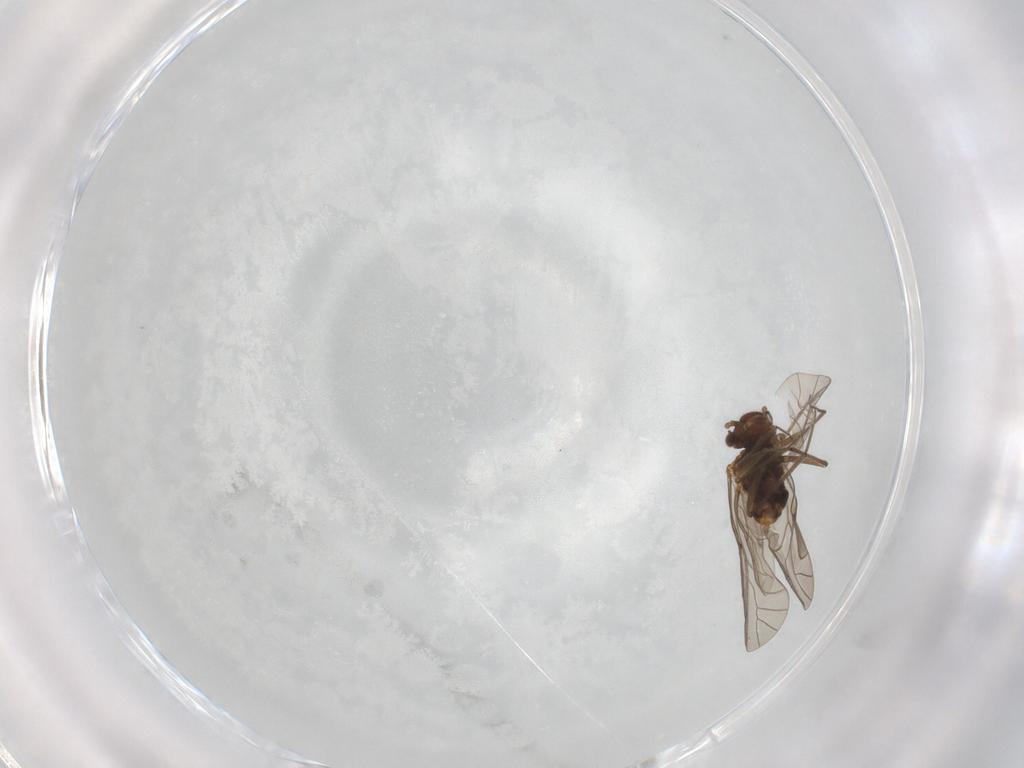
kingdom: Animalia
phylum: Arthropoda
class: Insecta
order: Psocodea
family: Lachesillidae
